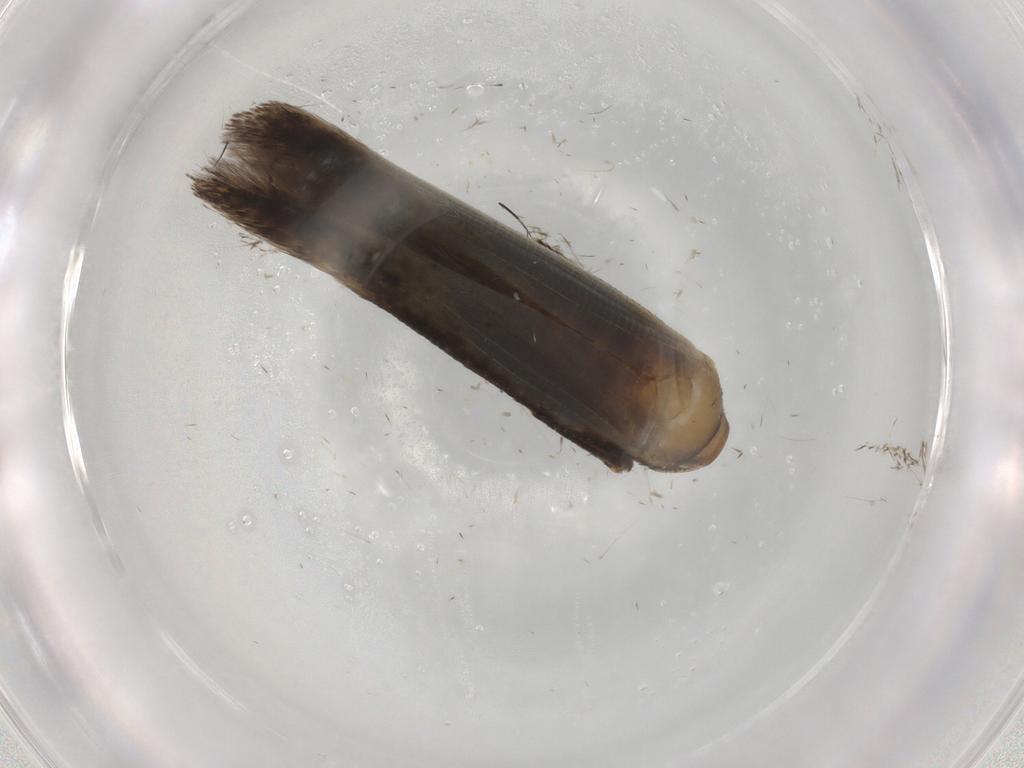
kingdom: Animalia
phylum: Arthropoda
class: Insecta
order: Lepidoptera
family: Cosmopterigidae
